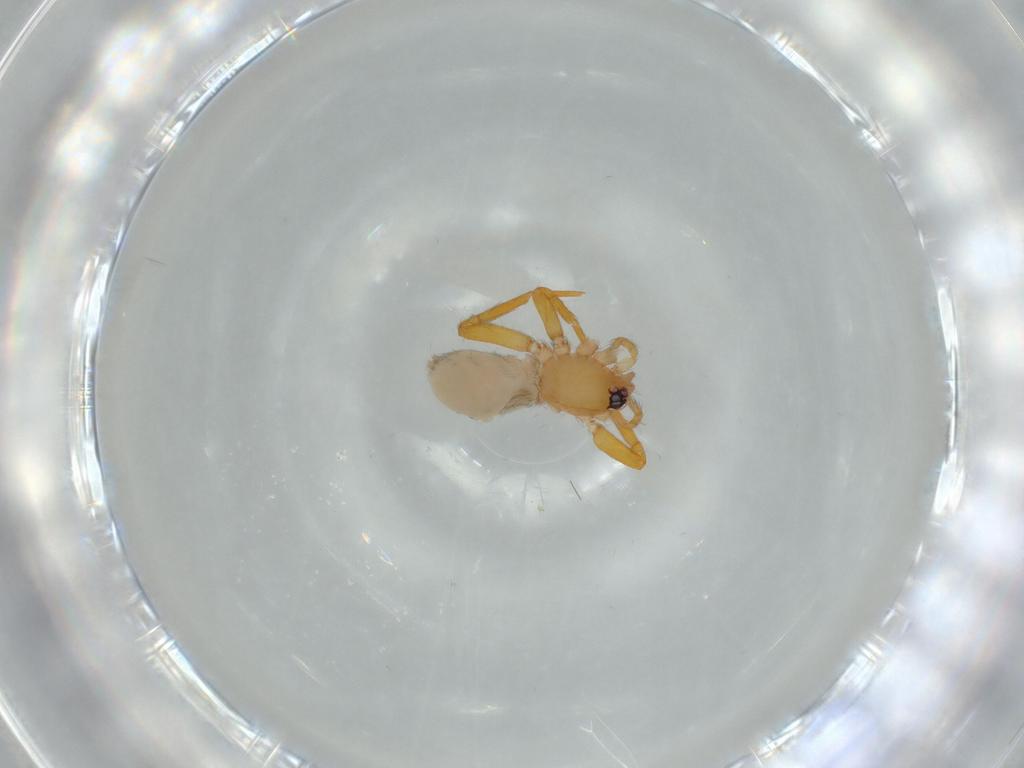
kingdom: Animalia
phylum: Arthropoda
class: Arachnida
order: Araneae
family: Oonopidae
